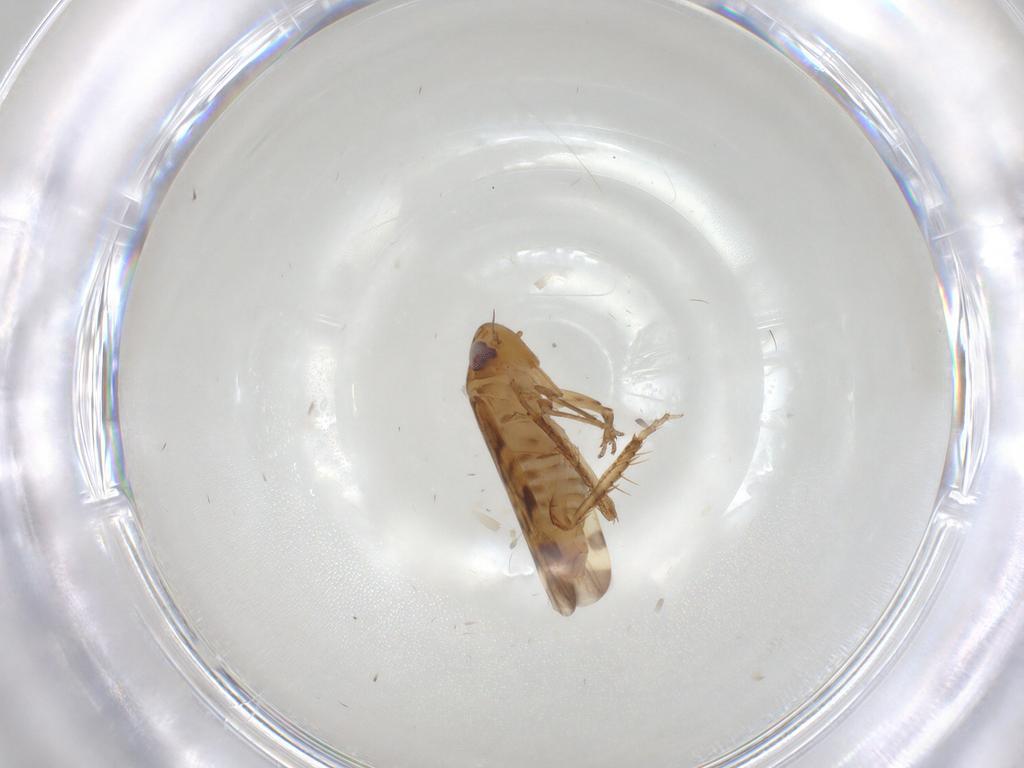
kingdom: Animalia
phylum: Arthropoda
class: Insecta
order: Hemiptera
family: Cicadellidae
